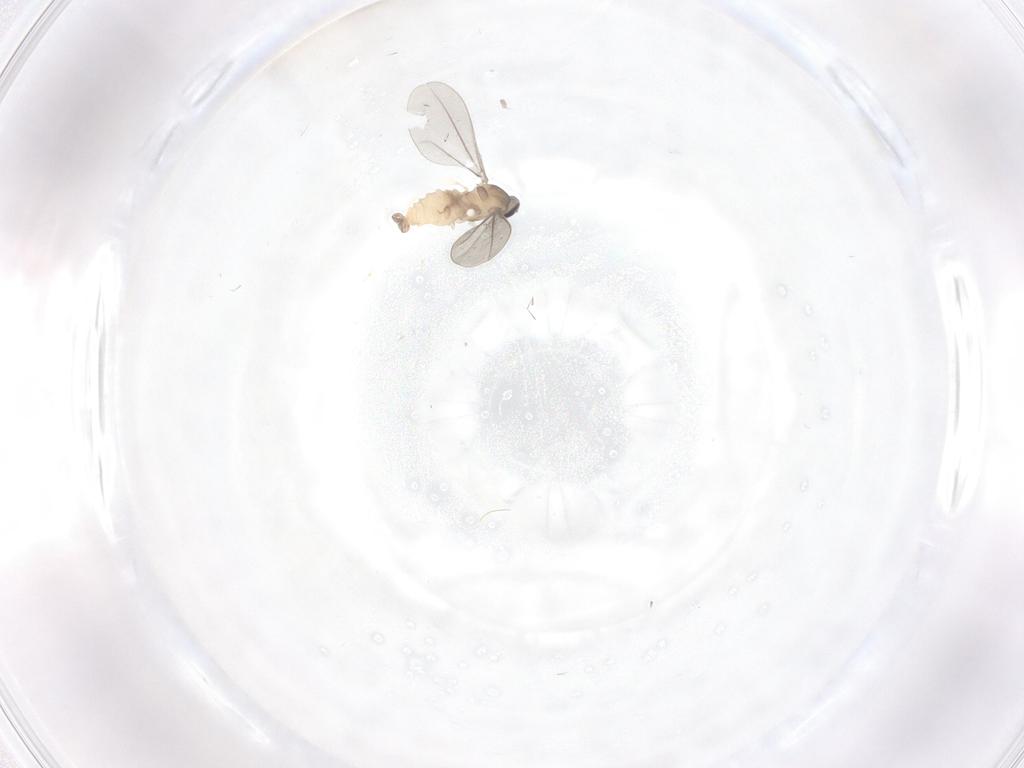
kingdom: Animalia
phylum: Arthropoda
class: Insecta
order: Diptera
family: Cecidomyiidae
